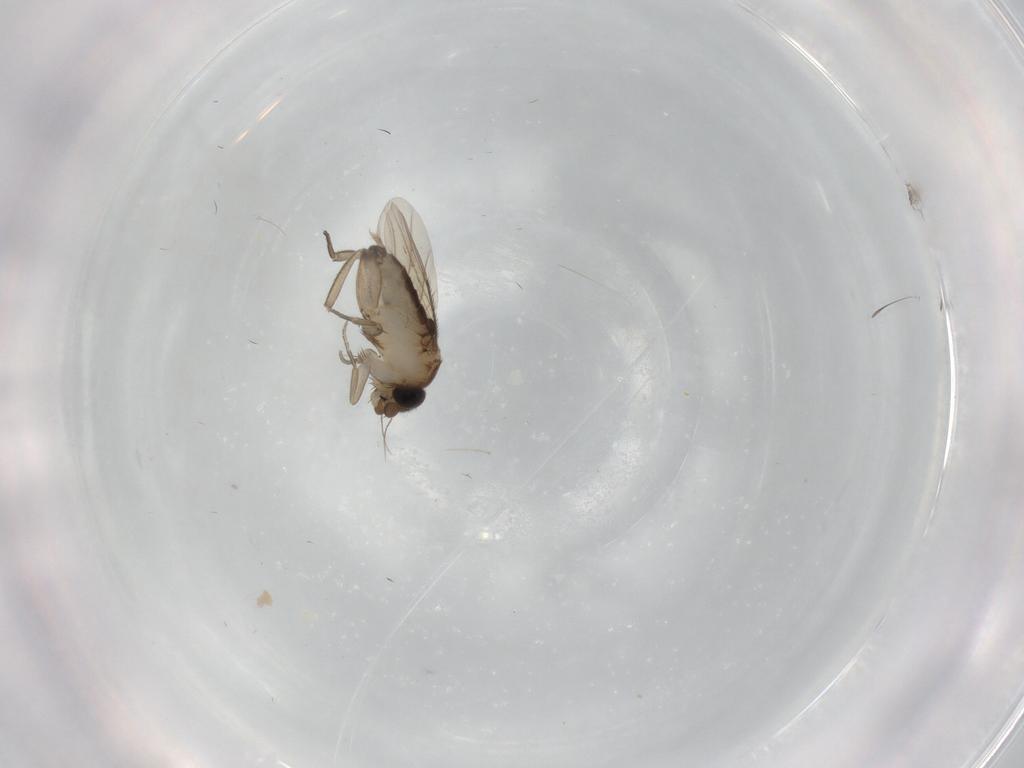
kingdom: Animalia
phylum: Arthropoda
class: Insecta
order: Diptera
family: Phoridae
